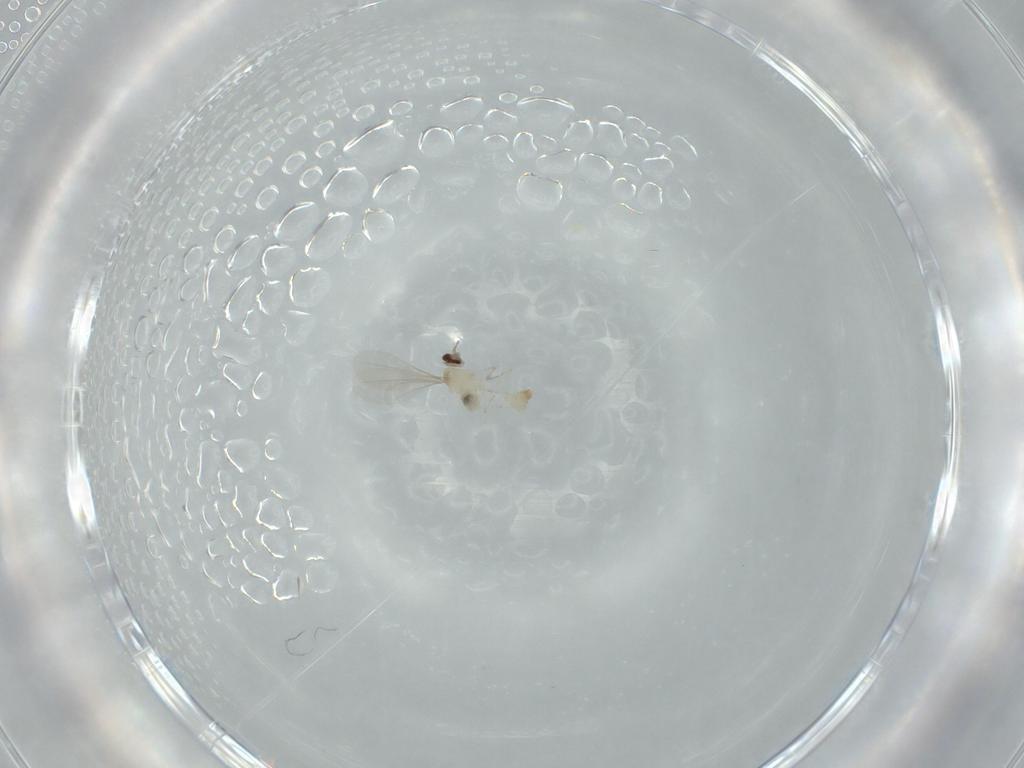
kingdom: Animalia
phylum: Arthropoda
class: Insecta
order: Diptera
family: Cecidomyiidae
